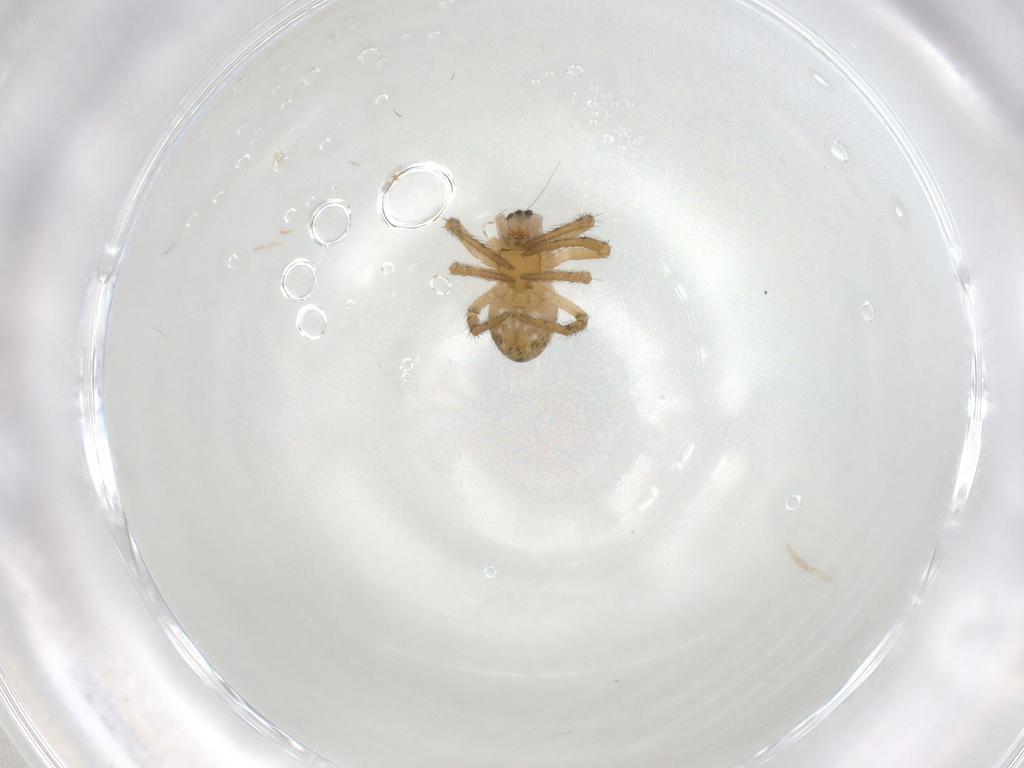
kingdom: Animalia
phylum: Arthropoda
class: Arachnida
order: Araneae
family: Araneidae
